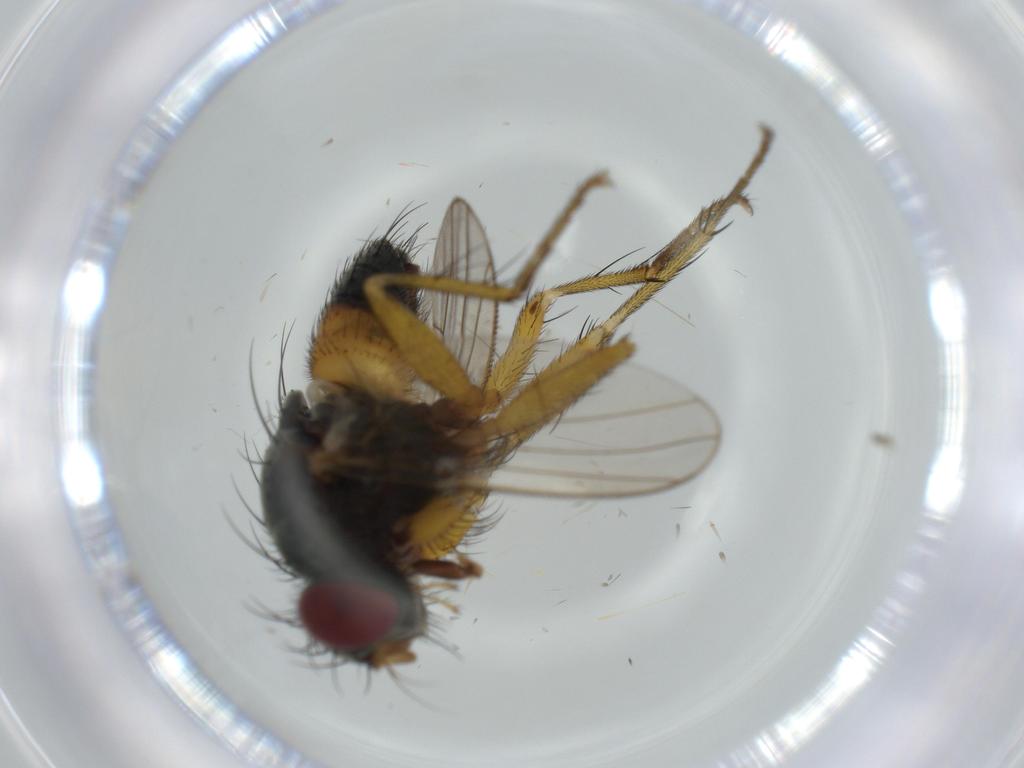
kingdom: Animalia
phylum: Arthropoda
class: Insecta
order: Diptera
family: Muscidae
